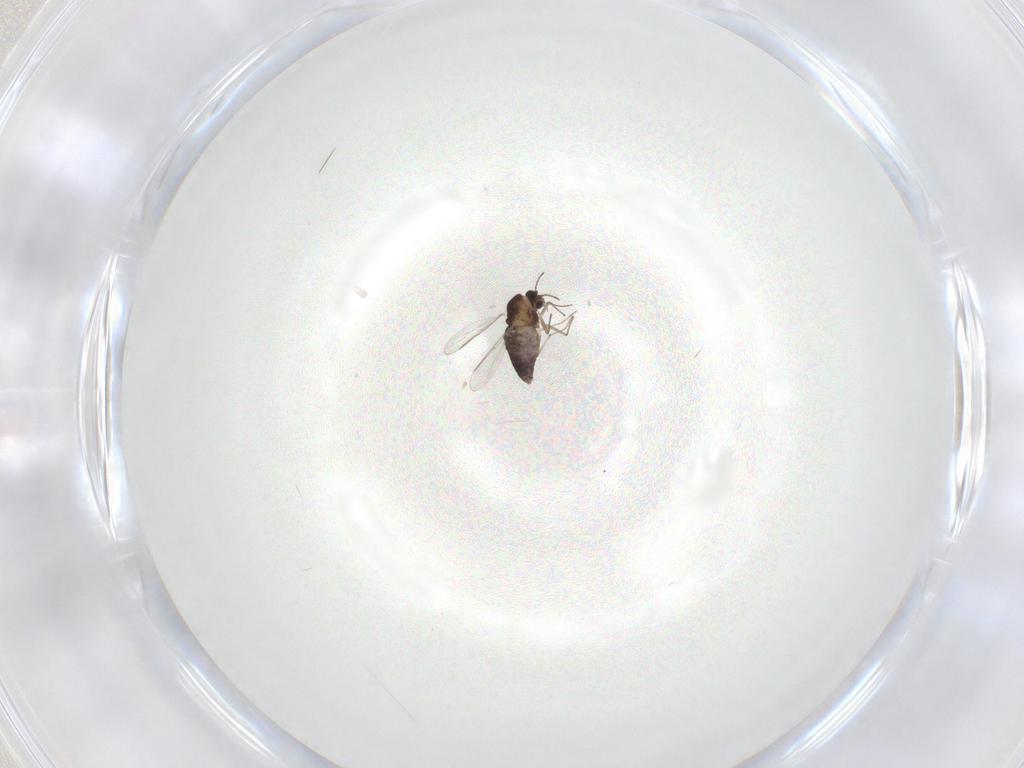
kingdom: Animalia
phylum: Arthropoda
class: Insecta
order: Diptera
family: Chironomidae
